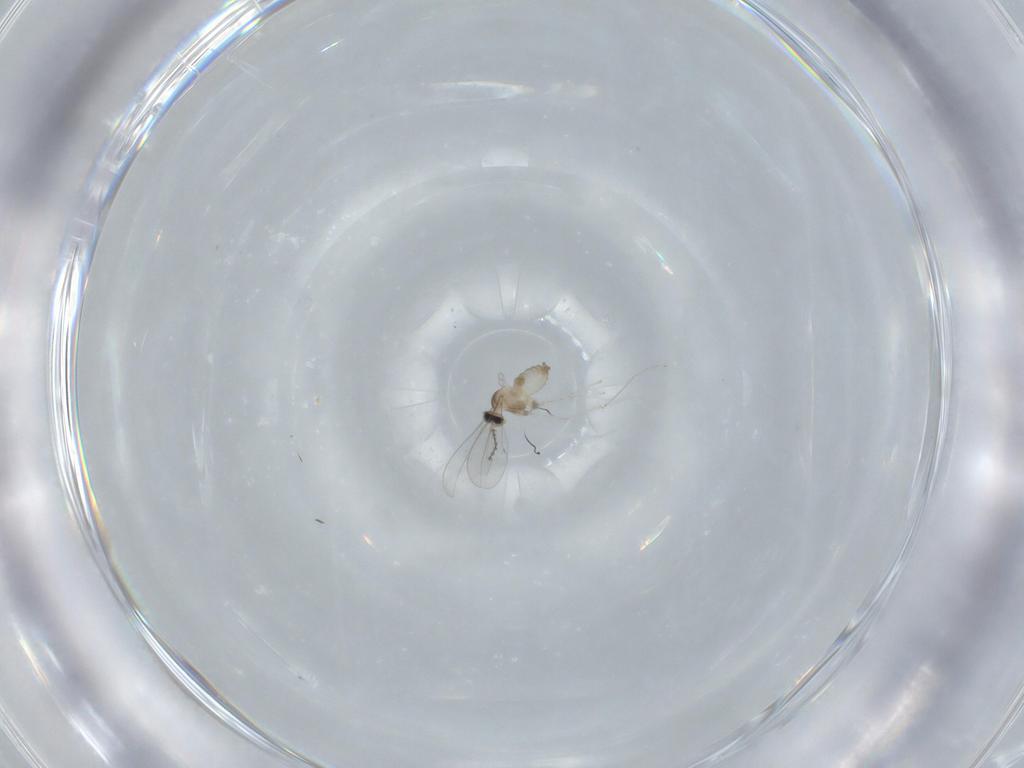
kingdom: Animalia
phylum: Arthropoda
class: Insecta
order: Diptera
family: Cecidomyiidae
